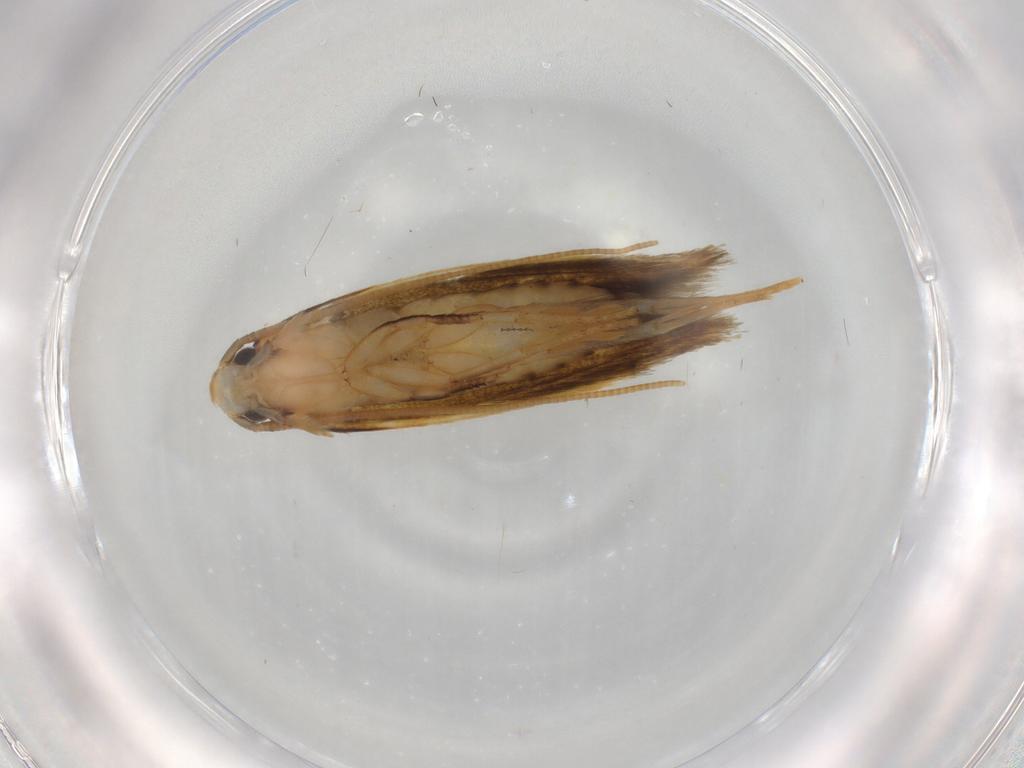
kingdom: Animalia
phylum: Arthropoda
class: Insecta
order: Lepidoptera
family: Tineidae
